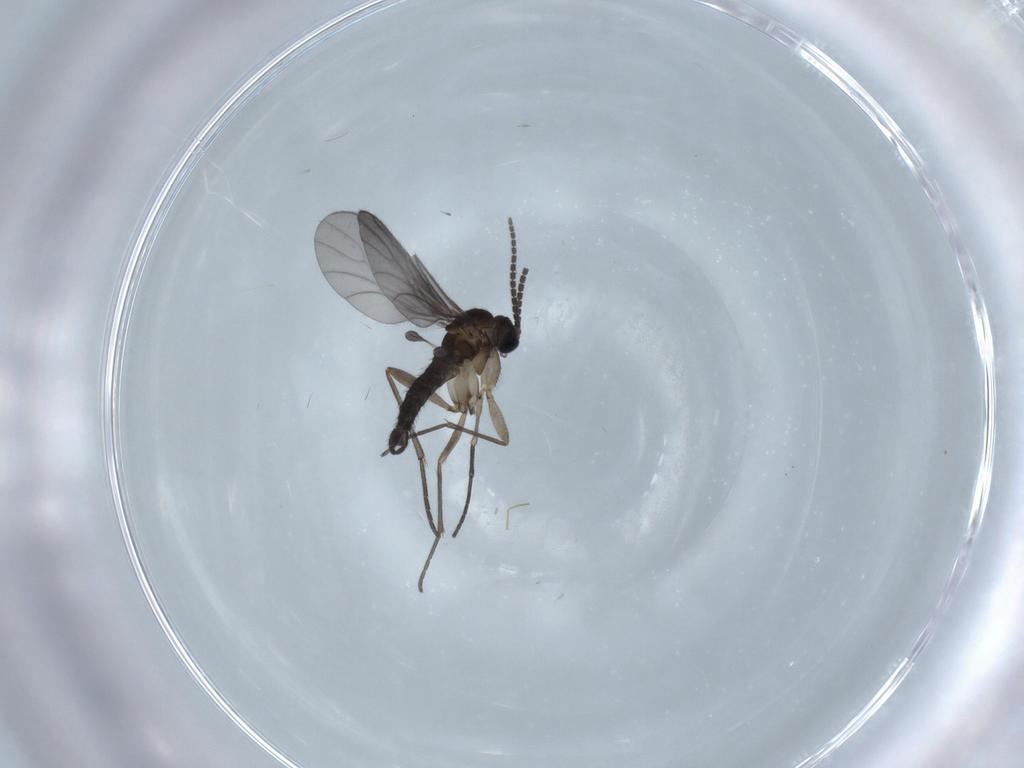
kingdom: Animalia
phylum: Arthropoda
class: Insecta
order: Diptera
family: Sciaridae
